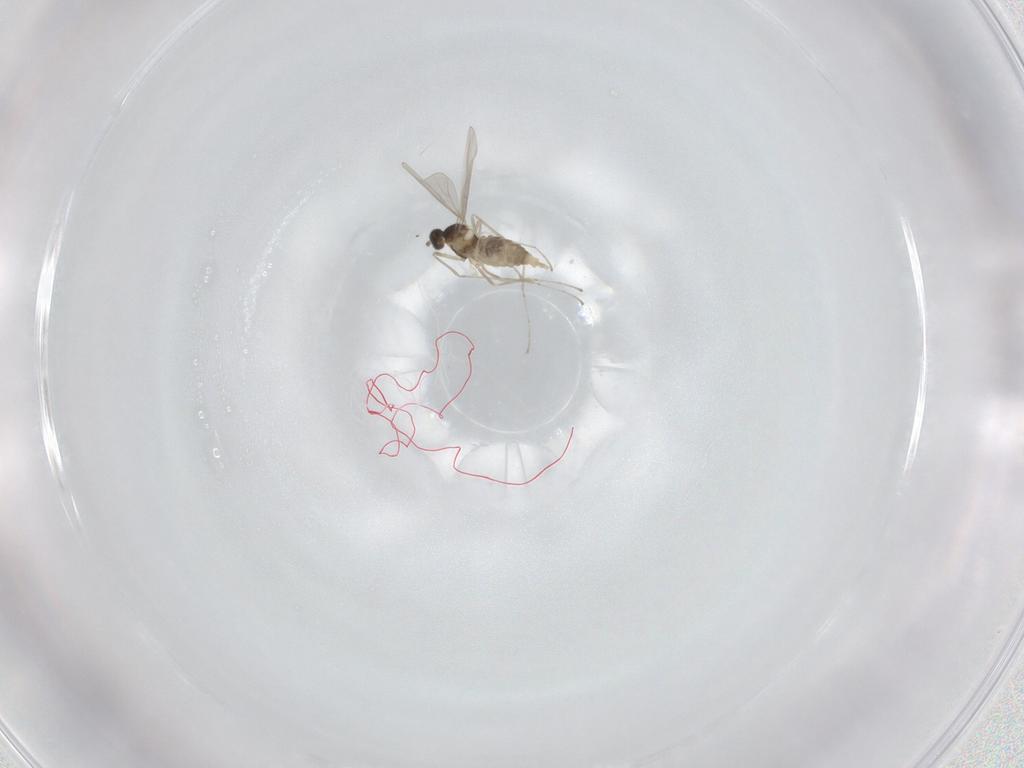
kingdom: Animalia
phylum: Arthropoda
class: Insecta
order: Diptera
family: Cecidomyiidae
